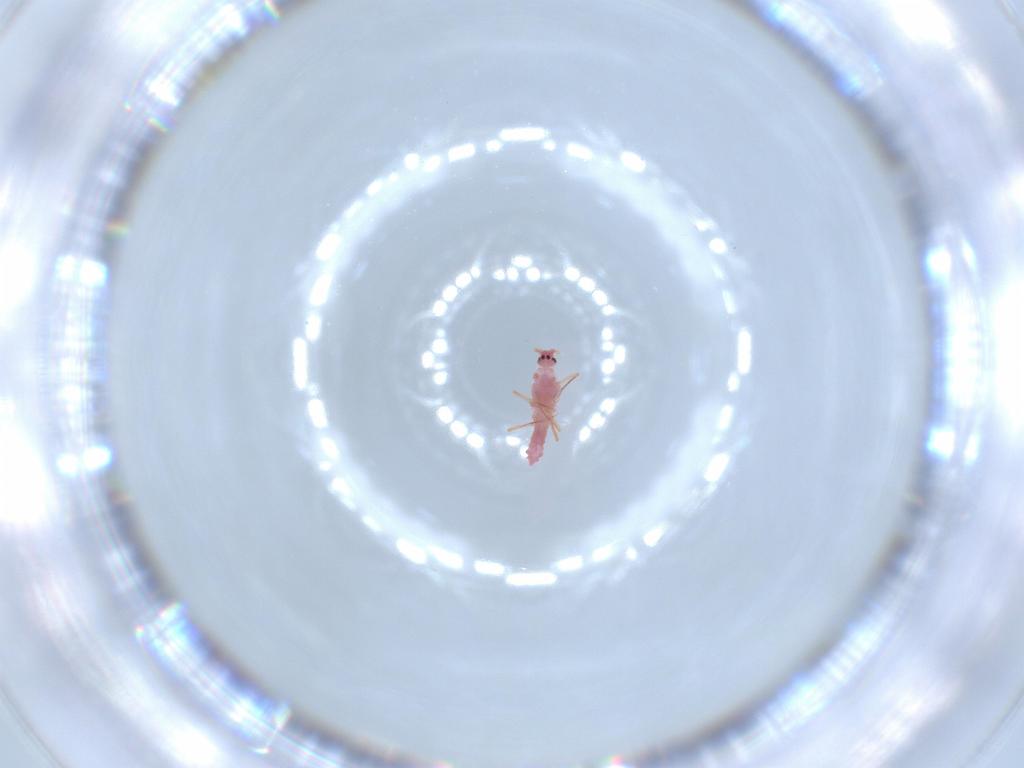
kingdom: Animalia
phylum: Arthropoda
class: Insecta
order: Hemiptera
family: Pseudococcidae
